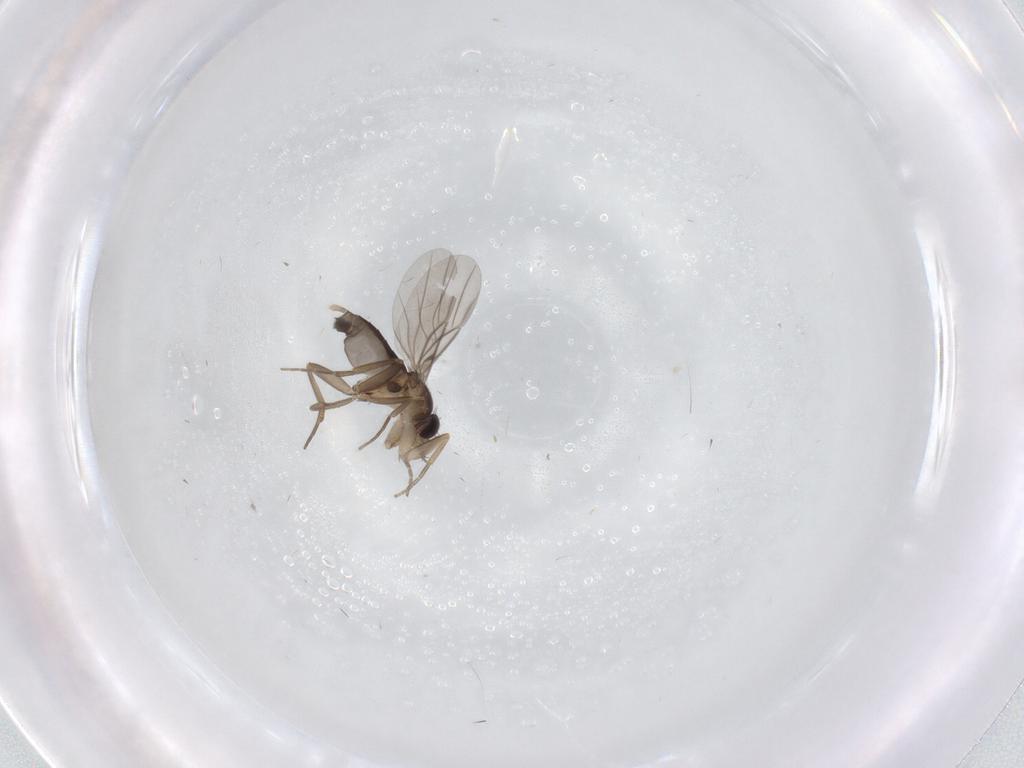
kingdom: Animalia
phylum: Arthropoda
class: Insecta
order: Diptera
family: Phoridae
